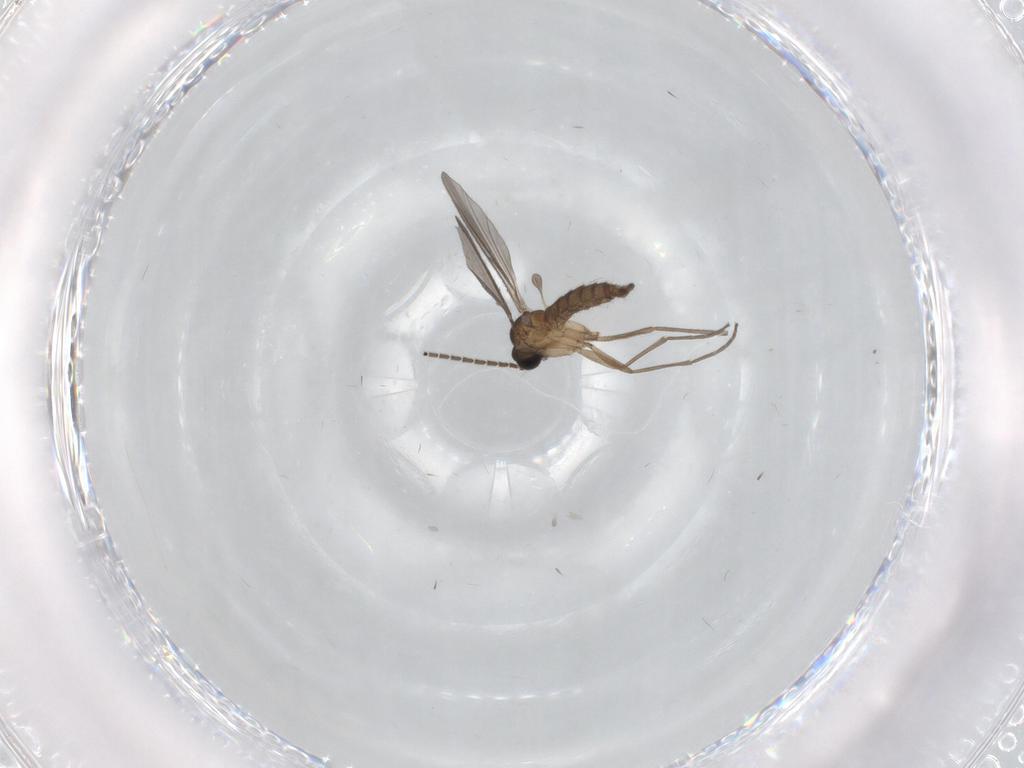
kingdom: Animalia
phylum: Arthropoda
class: Insecta
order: Diptera
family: Sciaridae
